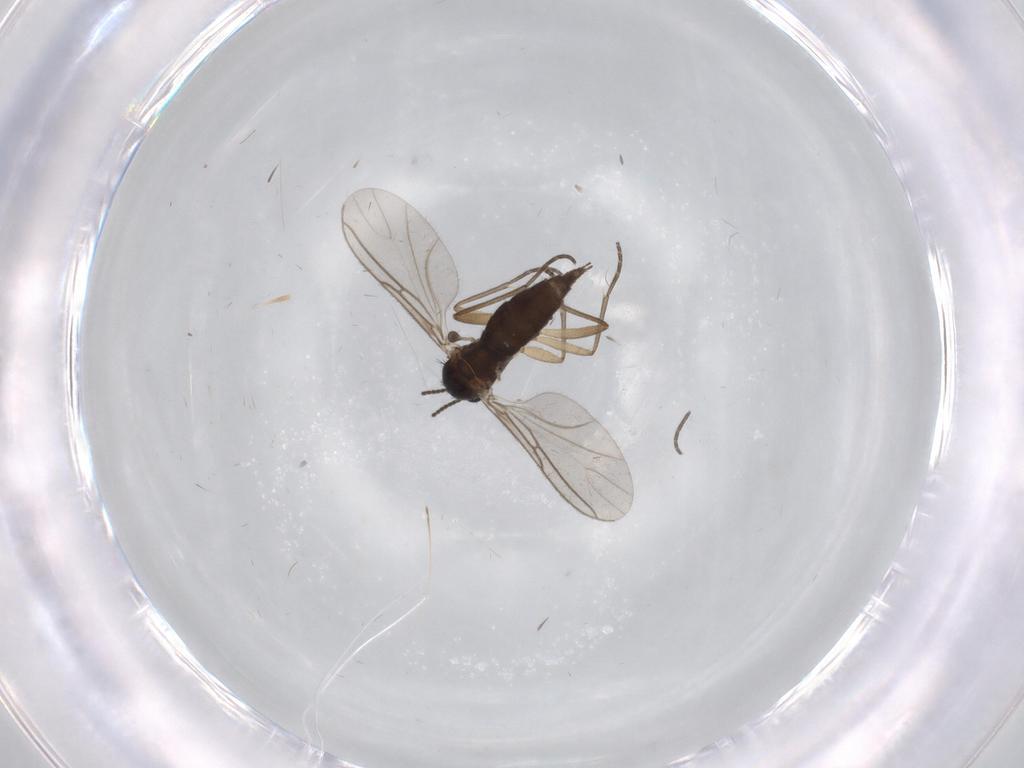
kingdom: Animalia
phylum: Arthropoda
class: Insecta
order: Diptera
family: Sciaridae
